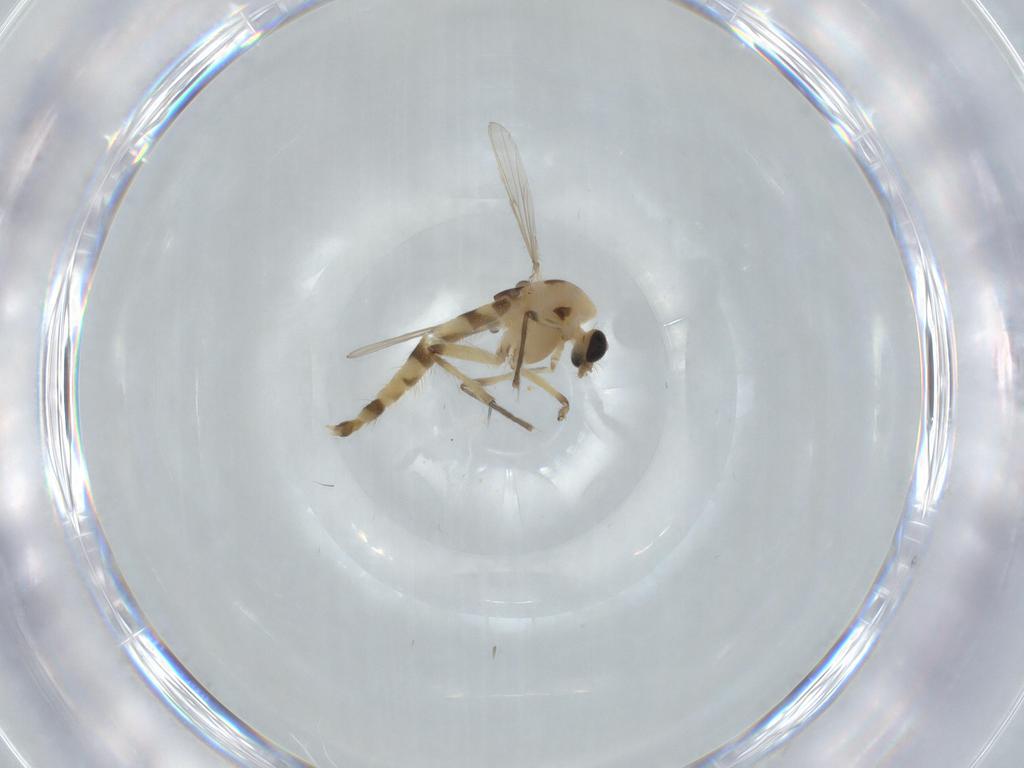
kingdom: Animalia
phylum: Arthropoda
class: Insecta
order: Diptera
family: Chironomidae
